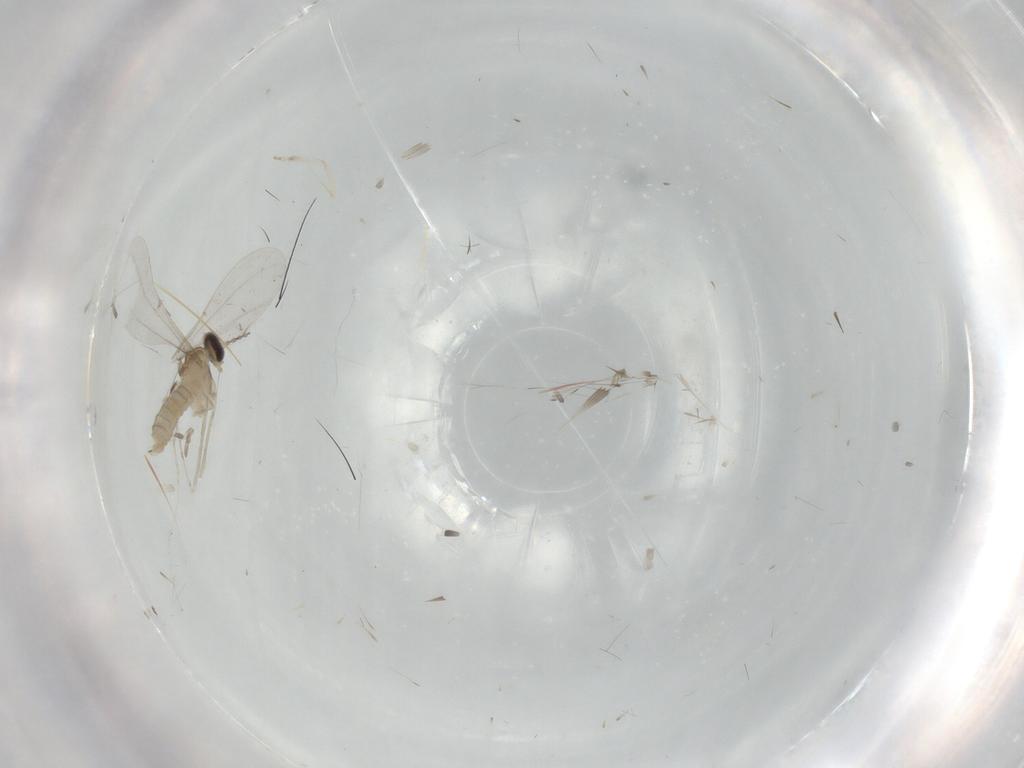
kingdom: Animalia
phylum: Arthropoda
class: Insecta
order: Diptera
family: Cecidomyiidae
